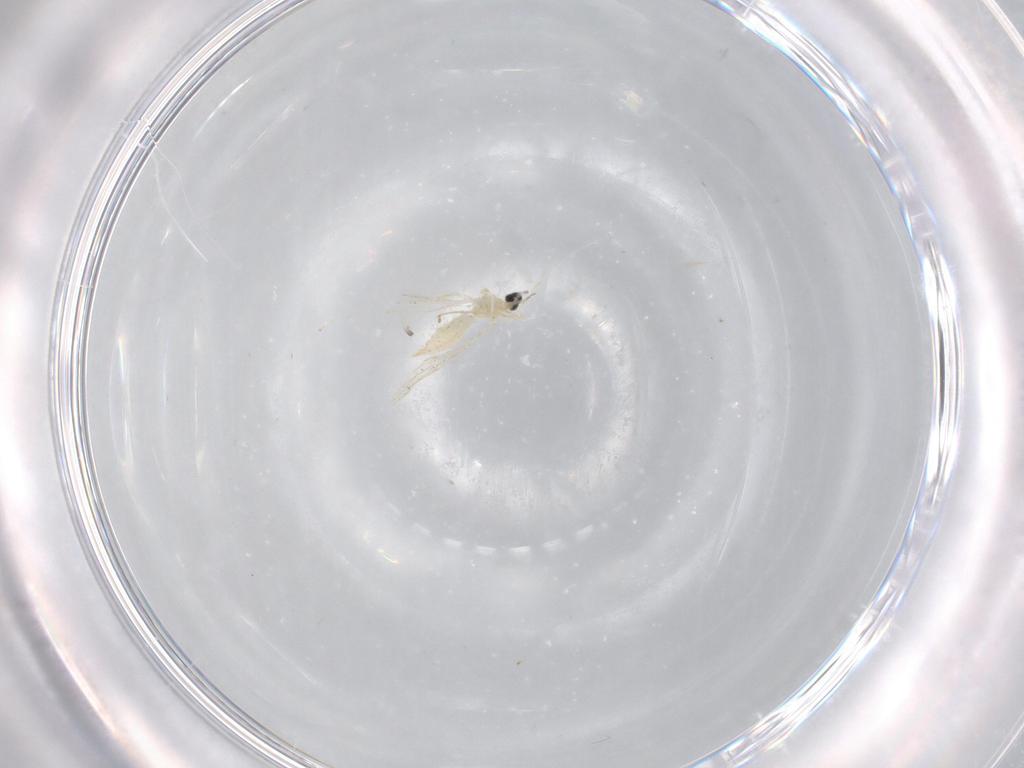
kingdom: Animalia
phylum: Arthropoda
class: Insecta
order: Diptera
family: Cecidomyiidae
